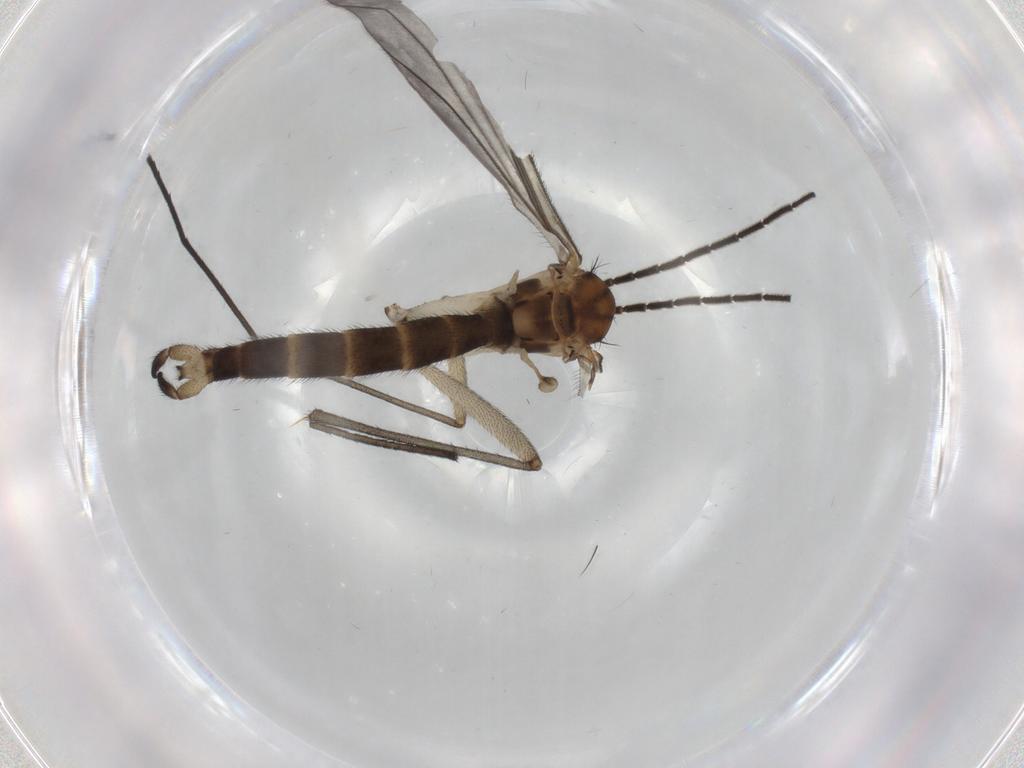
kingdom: Animalia
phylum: Arthropoda
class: Insecta
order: Diptera
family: Sciaridae
